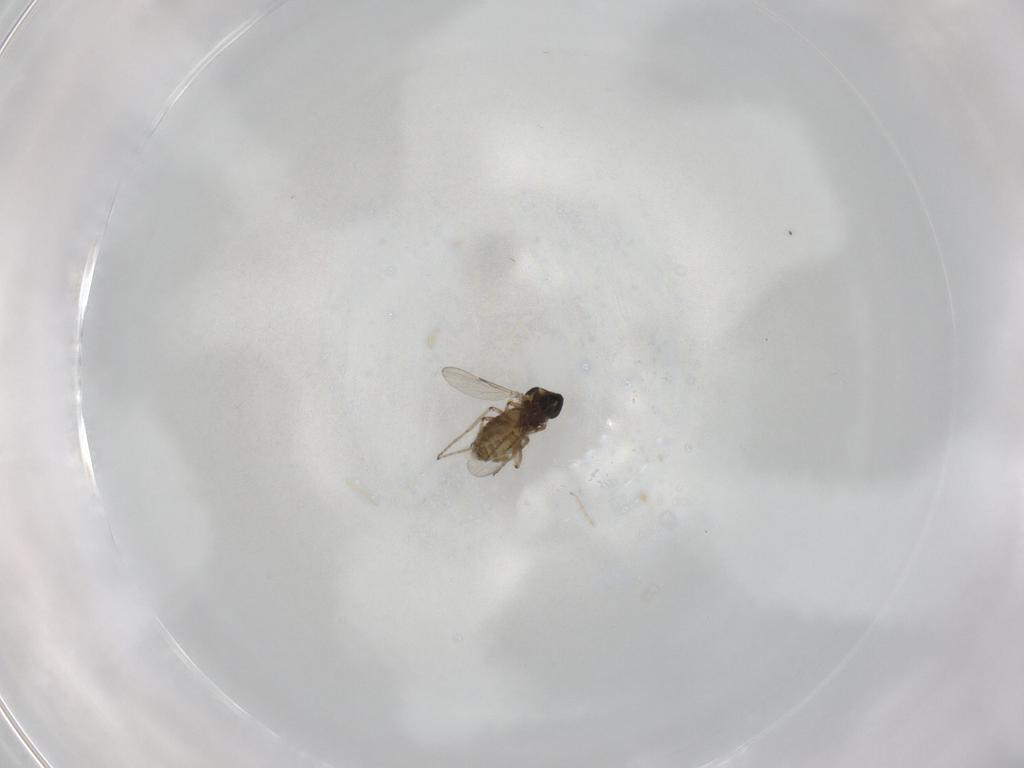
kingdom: Animalia
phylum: Arthropoda
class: Insecta
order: Diptera
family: Ceratopogonidae
